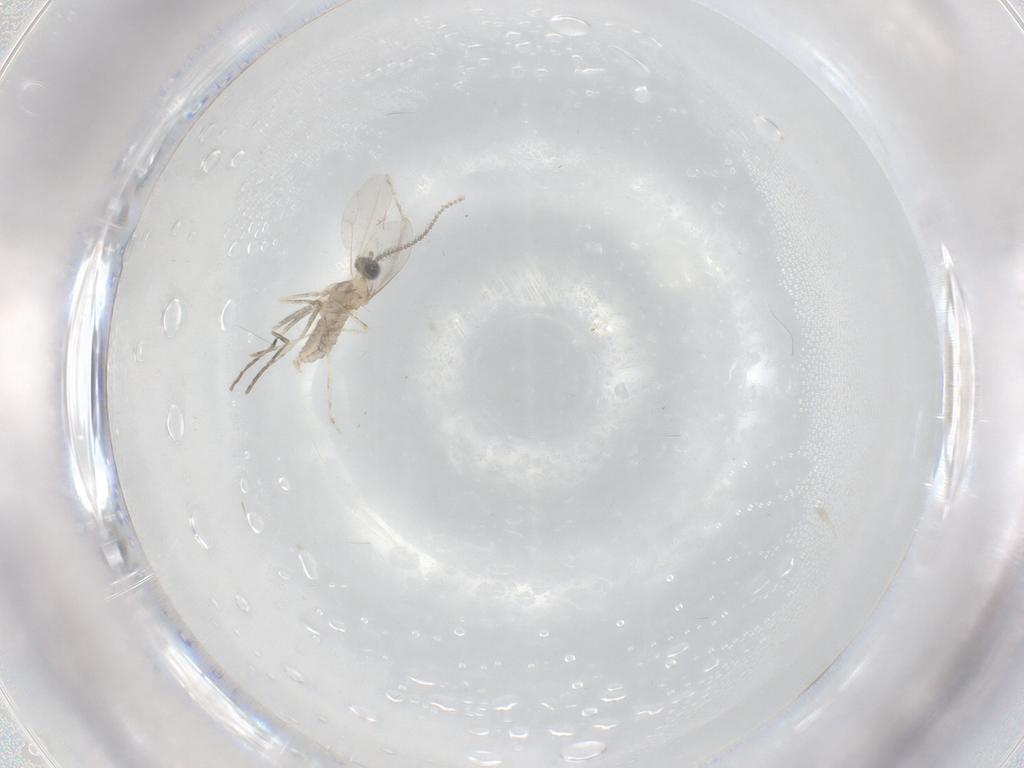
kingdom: Animalia
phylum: Arthropoda
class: Insecta
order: Diptera
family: Cecidomyiidae
